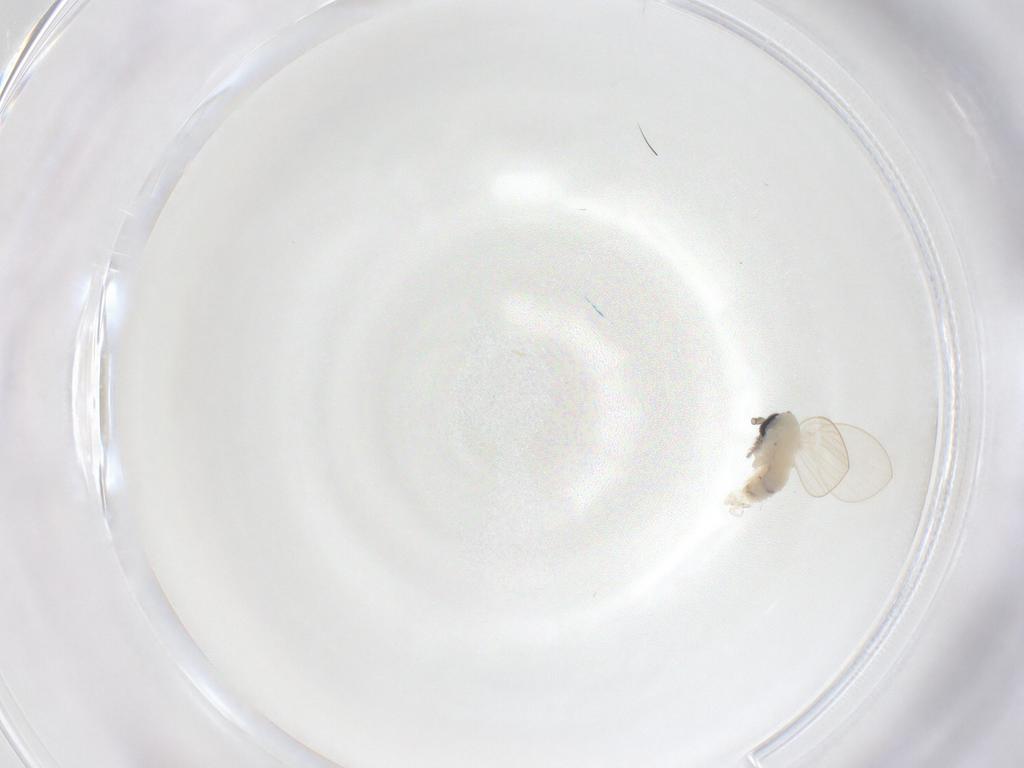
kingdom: Animalia
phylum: Arthropoda
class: Insecta
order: Diptera
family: Psychodidae
